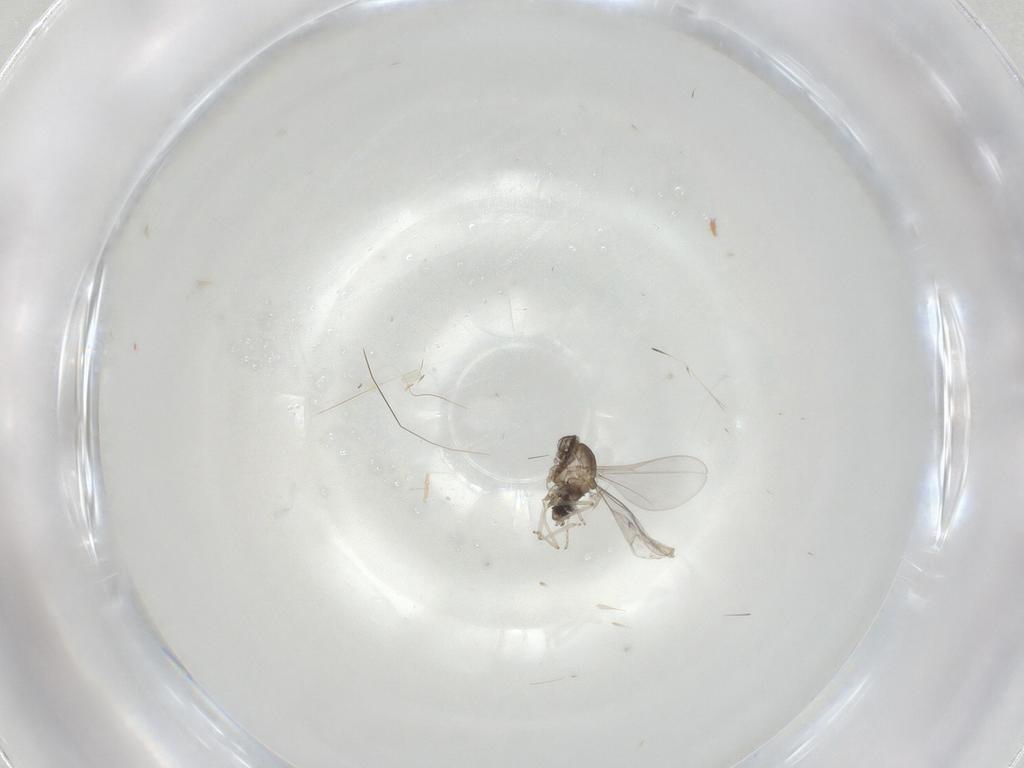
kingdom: Animalia
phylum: Arthropoda
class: Insecta
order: Diptera
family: Cecidomyiidae
